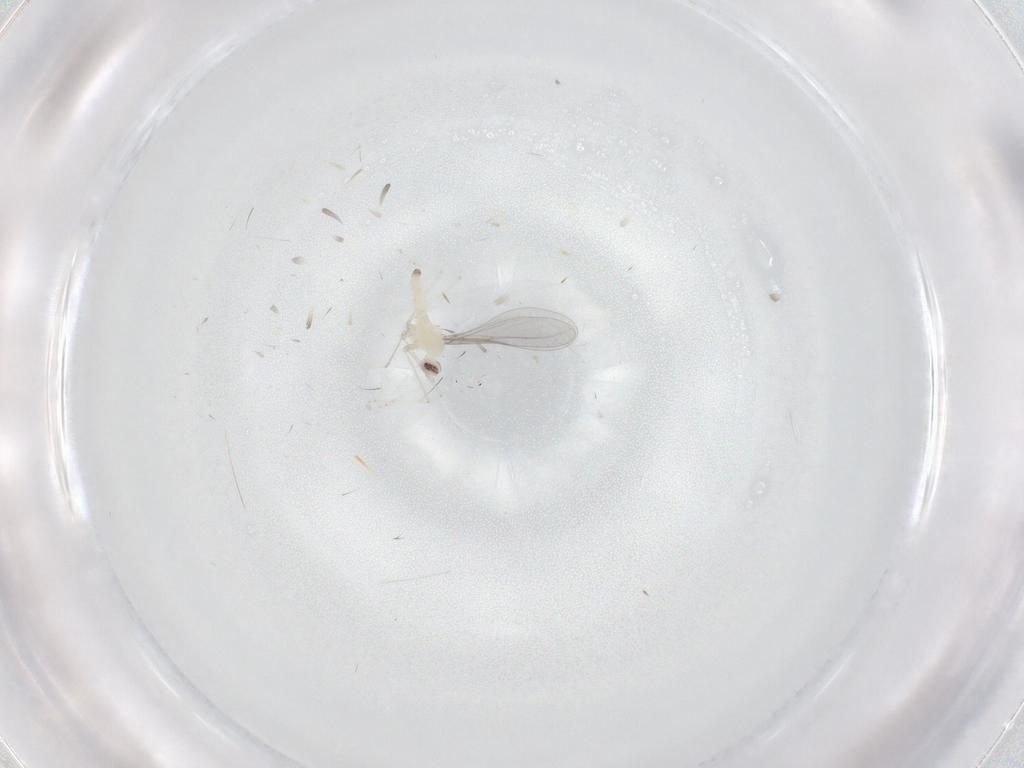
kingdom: Animalia
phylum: Arthropoda
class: Insecta
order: Diptera
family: Cecidomyiidae
